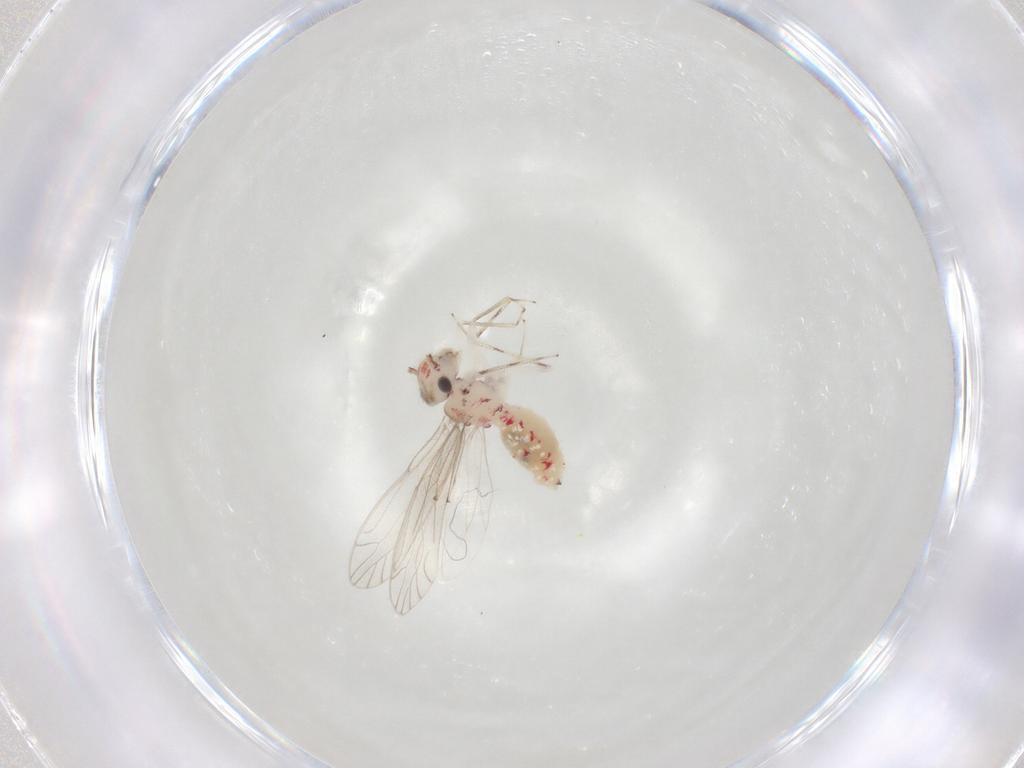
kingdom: Animalia
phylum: Arthropoda
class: Insecta
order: Psocodea
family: Caeciliusidae
